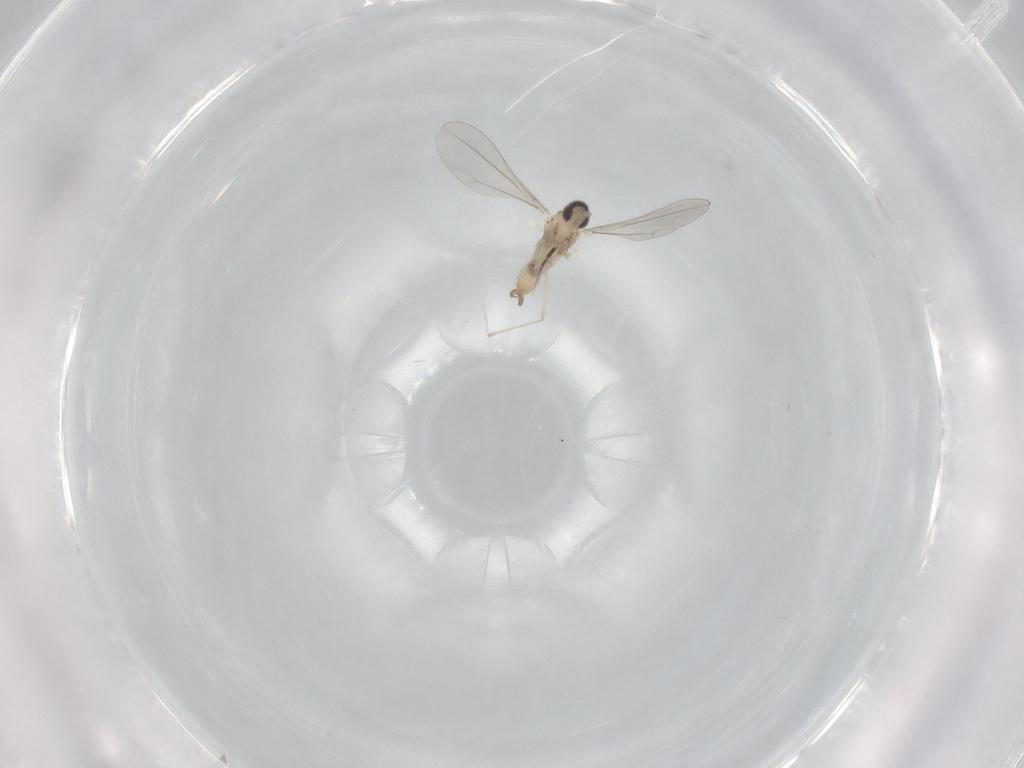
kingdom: Animalia
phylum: Arthropoda
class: Insecta
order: Diptera
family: Cecidomyiidae
